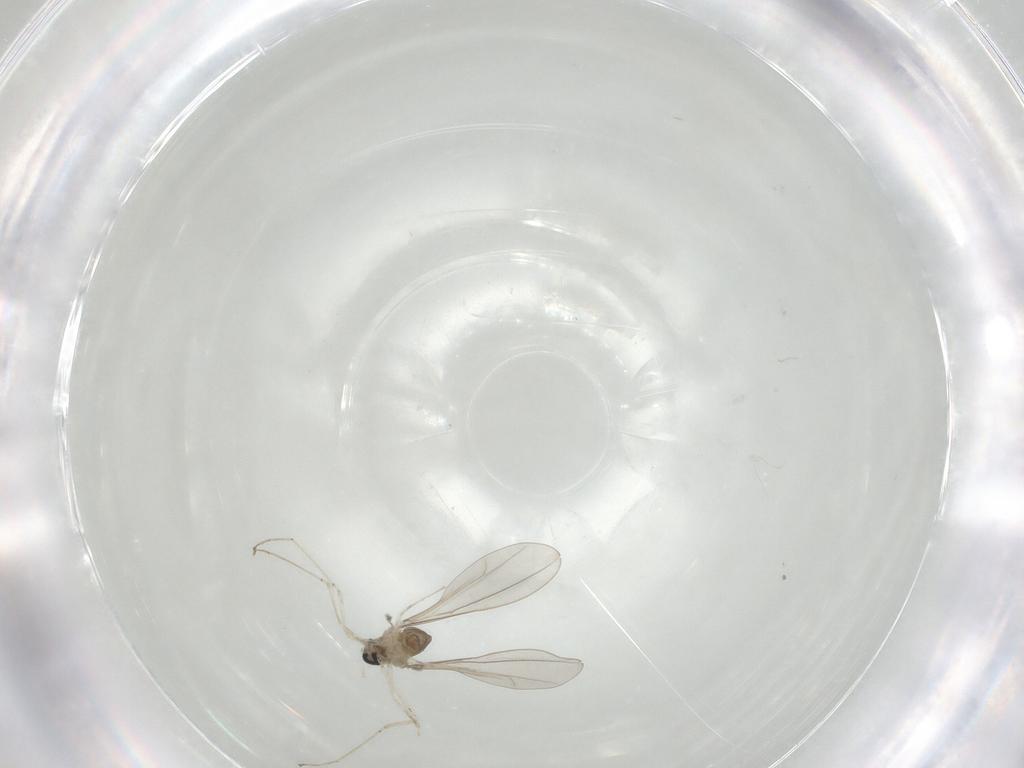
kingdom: Animalia
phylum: Arthropoda
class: Insecta
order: Diptera
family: Cecidomyiidae
